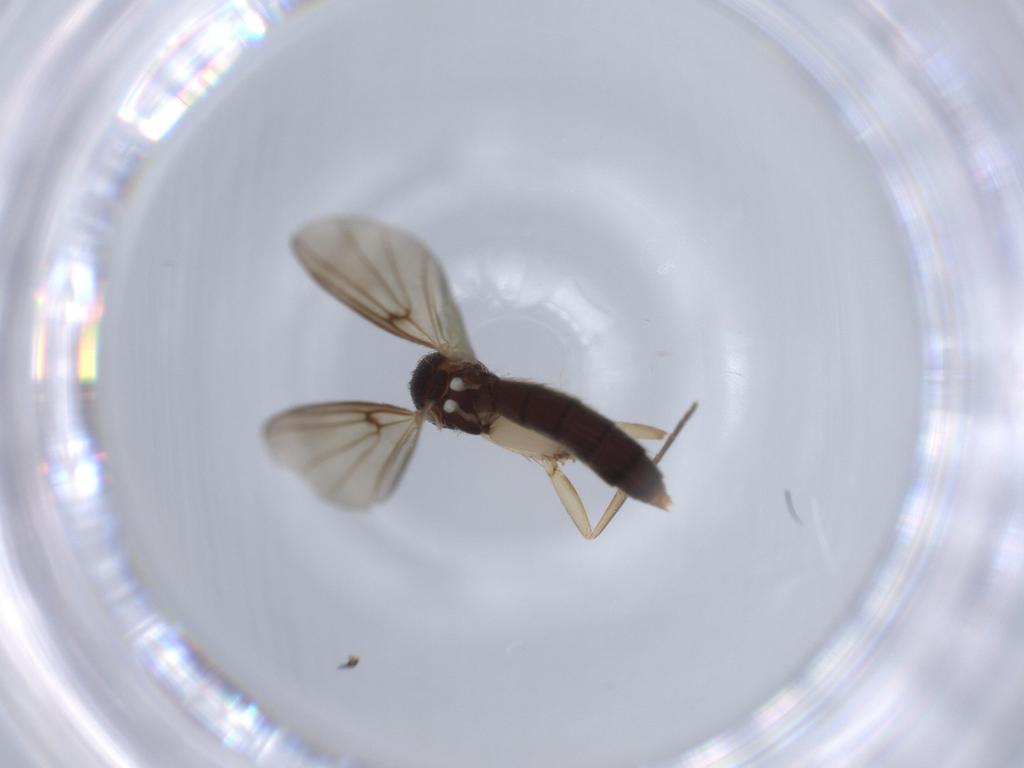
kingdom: Animalia
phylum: Arthropoda
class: Insecta
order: Diptera
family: Mycetophilidae
